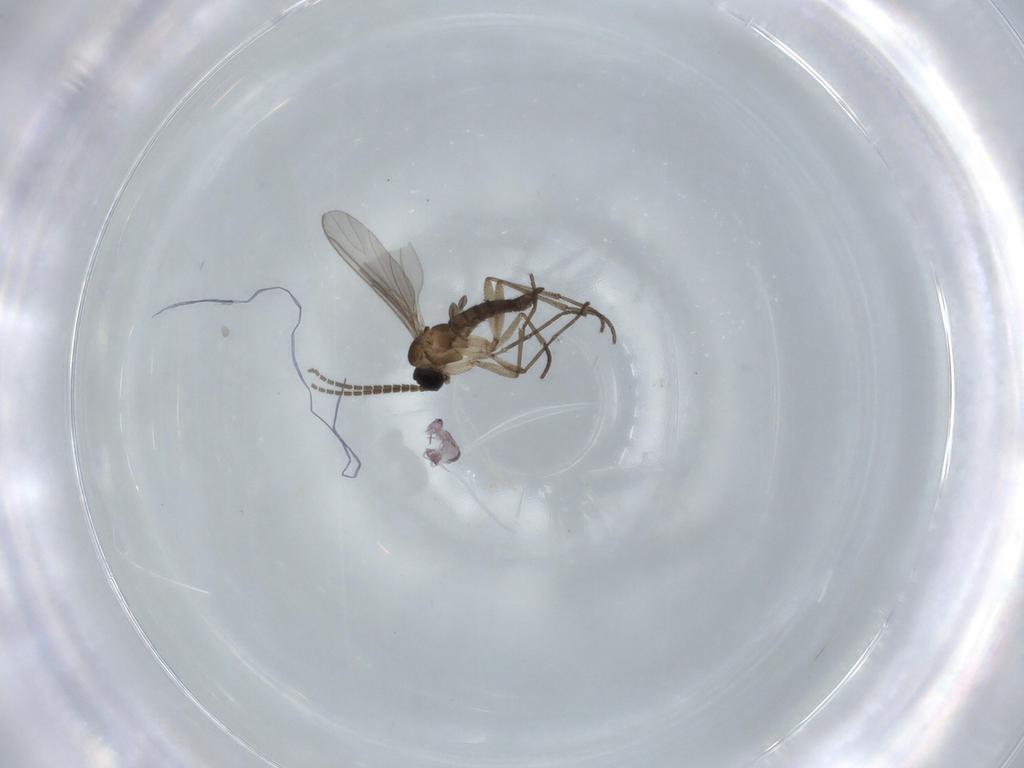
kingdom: Animalia
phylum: Arthropoda
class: Insecta
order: Diptera
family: Sciaridae
